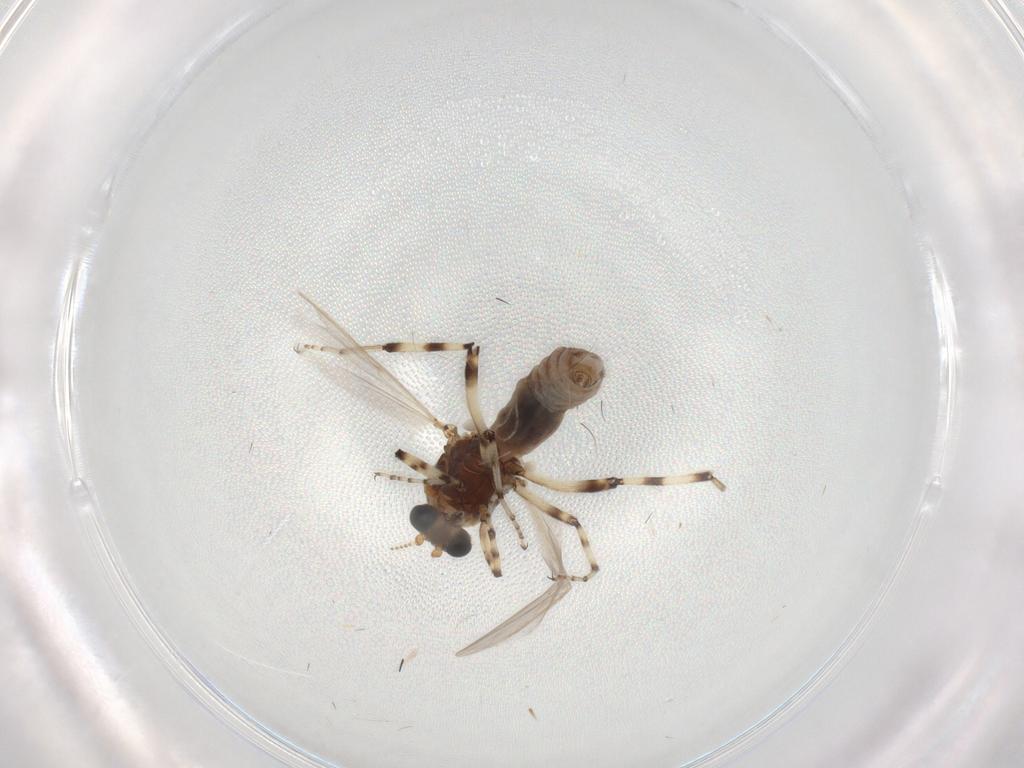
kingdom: Animalia
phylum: Arthropoda
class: Insecta
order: Diptera
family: Ceratopogonidae
